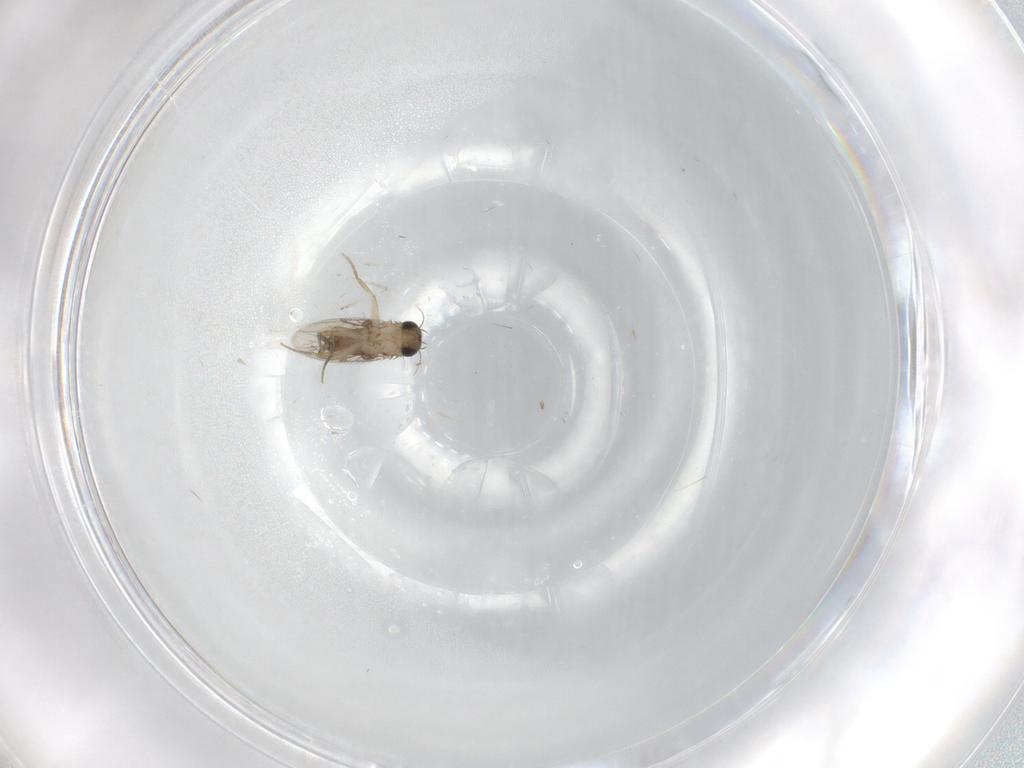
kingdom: Animalia
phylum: Arthropoda
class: Insecta
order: Diptera
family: Phoridae
